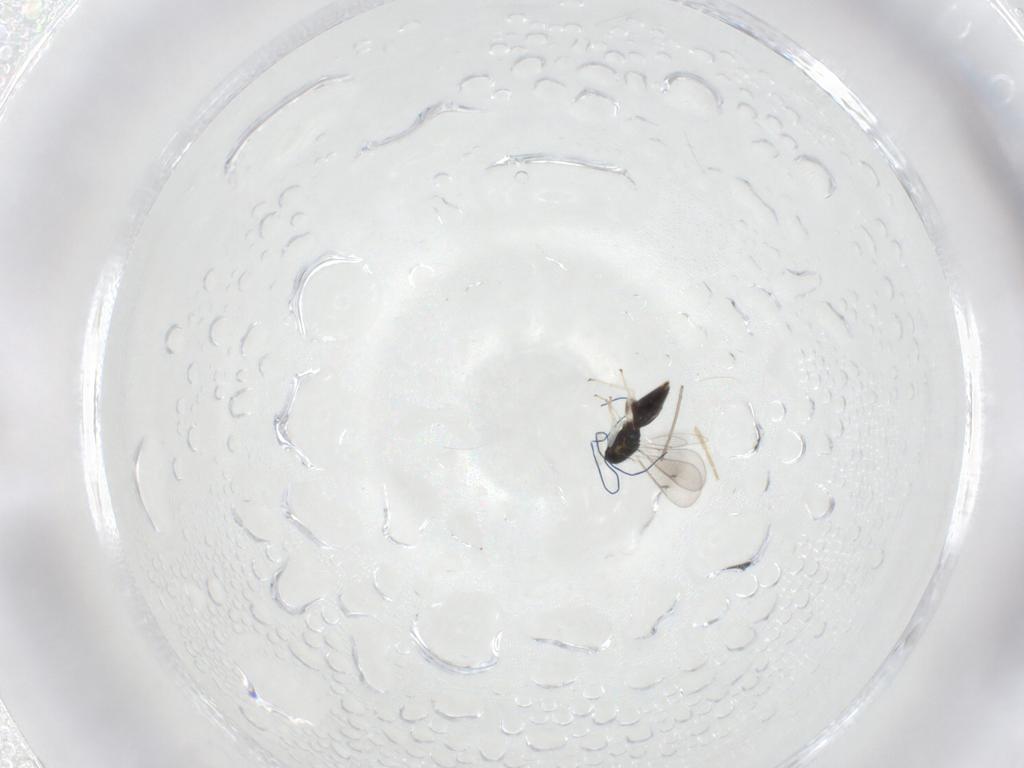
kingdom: Animalia
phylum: Arthropoda
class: Insecta
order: Hymenoptera
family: Eulophidae
